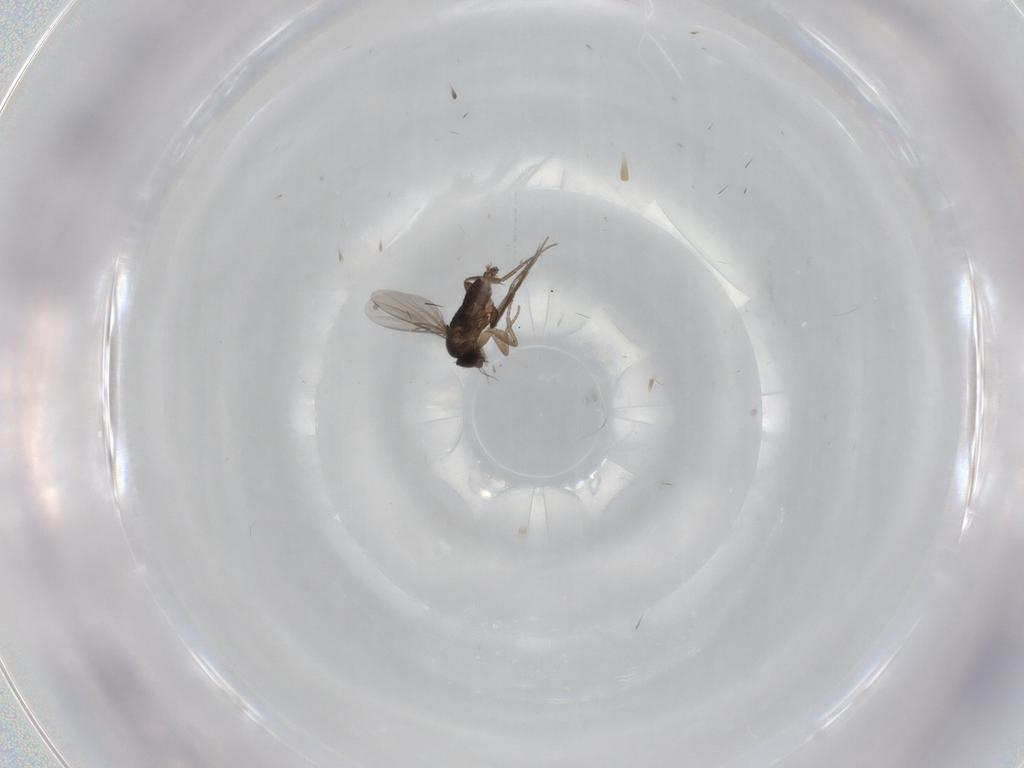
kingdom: Animalia
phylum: Arthropoda
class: Insecta
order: Diptera
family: Phoridae
